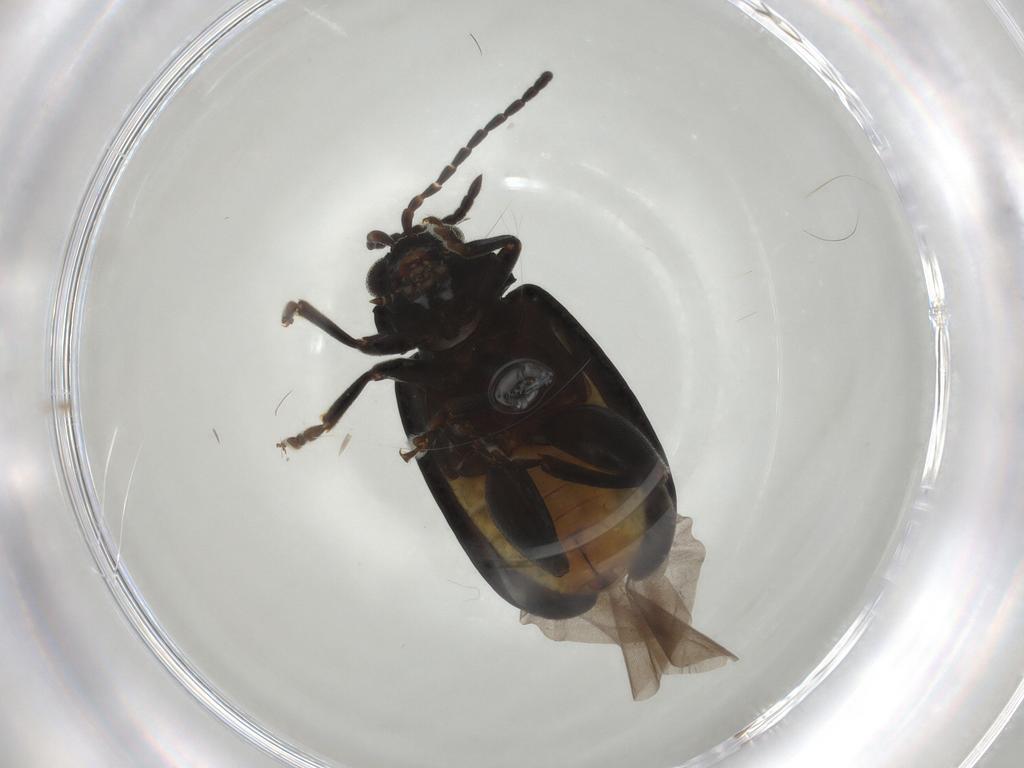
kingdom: Animalia
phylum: Arthropoda
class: Insecta
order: Coleoptera
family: Chrysomelidae
